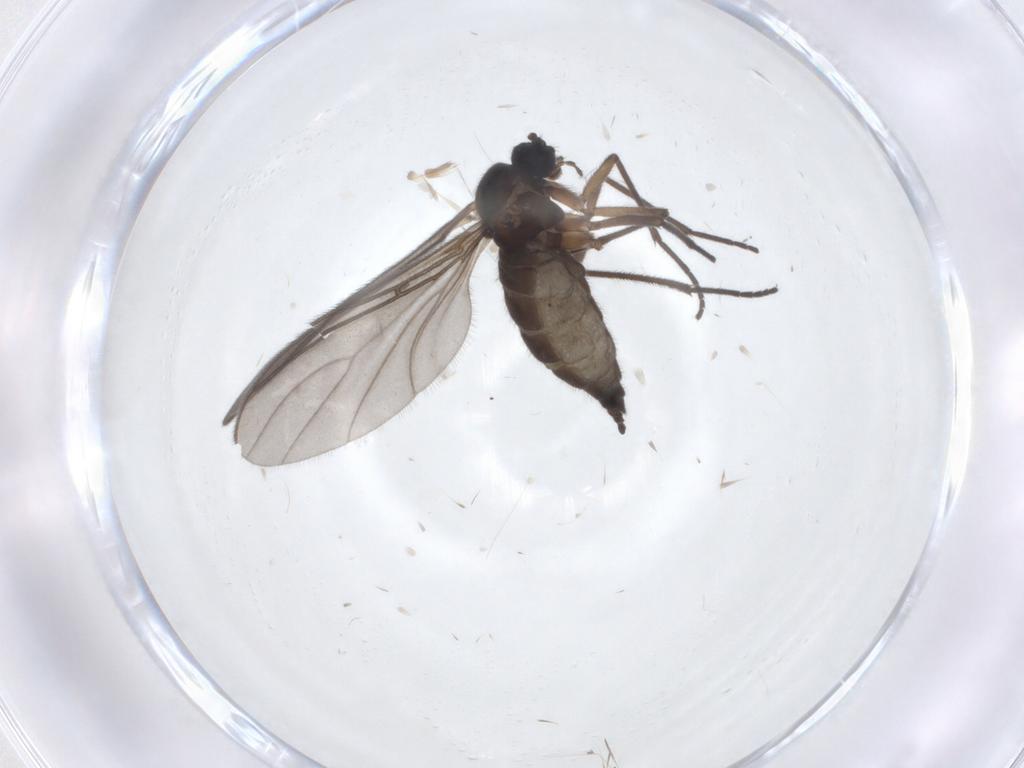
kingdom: Animalia
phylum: Arthropoda
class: Insecta
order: Diptera
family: Sciaridae
